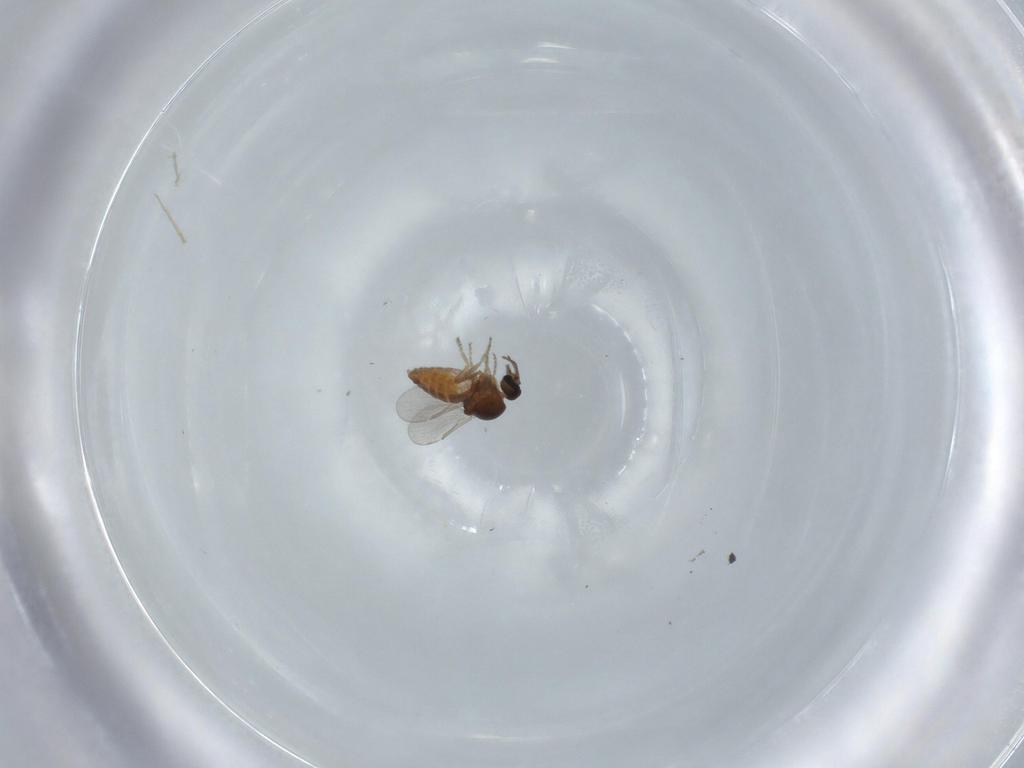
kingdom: Animalia
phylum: Arthropoda
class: Insecta
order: Diptera
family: Ceratopogonidae
